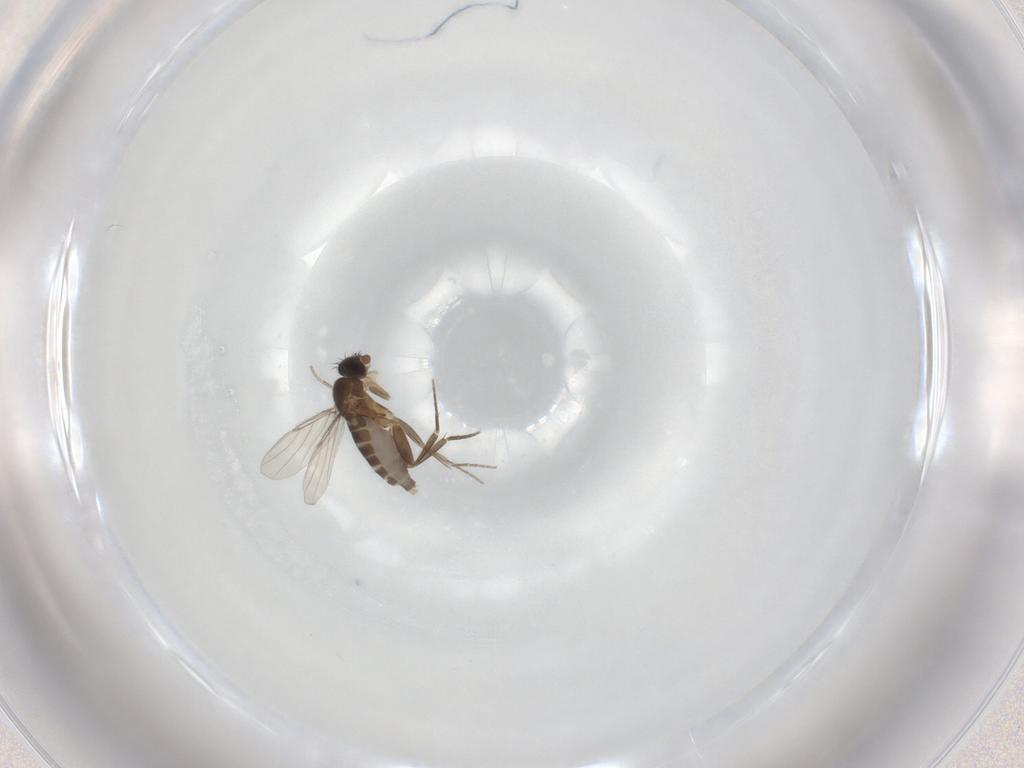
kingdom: Animalia
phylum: Arthropoda
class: Insecta
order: Diptera
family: Phoridae
